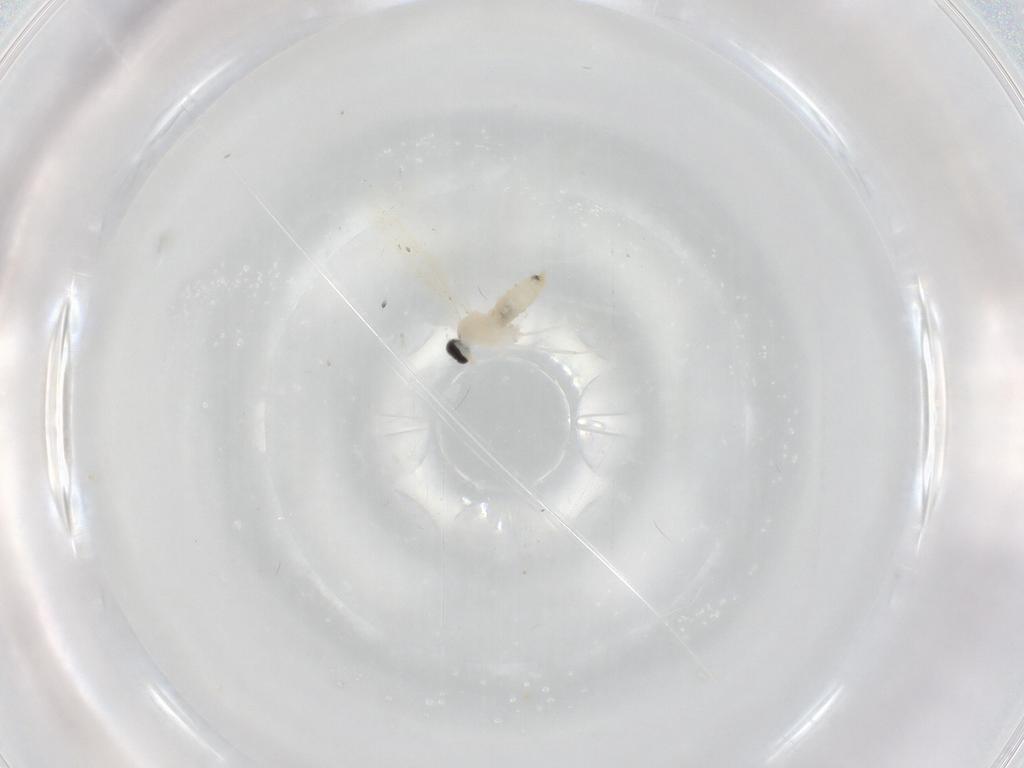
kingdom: Animalia
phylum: Arthropoda
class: Insecta
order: Diptera
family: Cecidomyiidae
